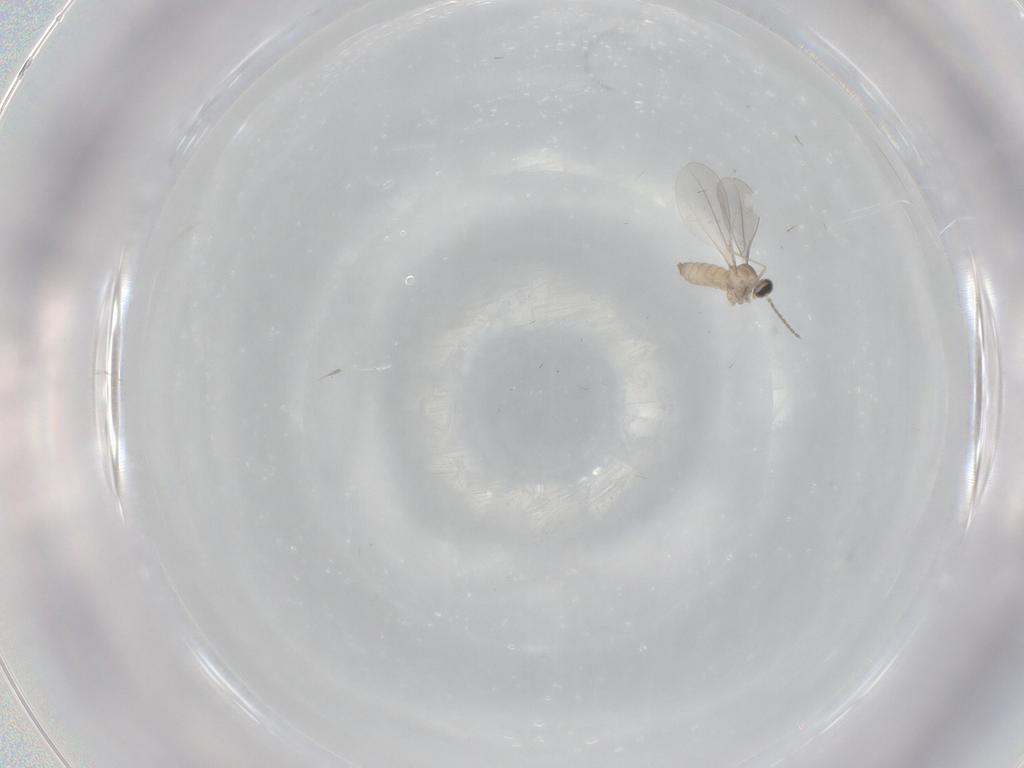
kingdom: Animalia
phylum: Arthropoda
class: Insecta
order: Diptera
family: Cecidomyiidae
